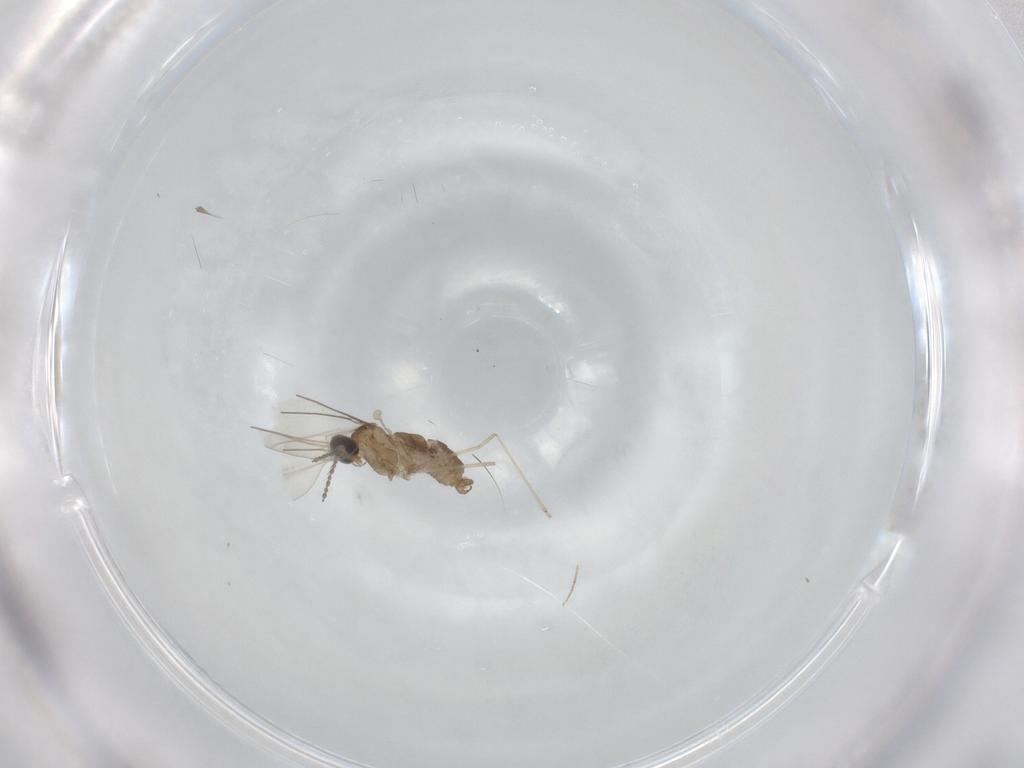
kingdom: Animalia
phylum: Arthropoda
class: Insecta
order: Diptera
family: Cecidomyiidae
